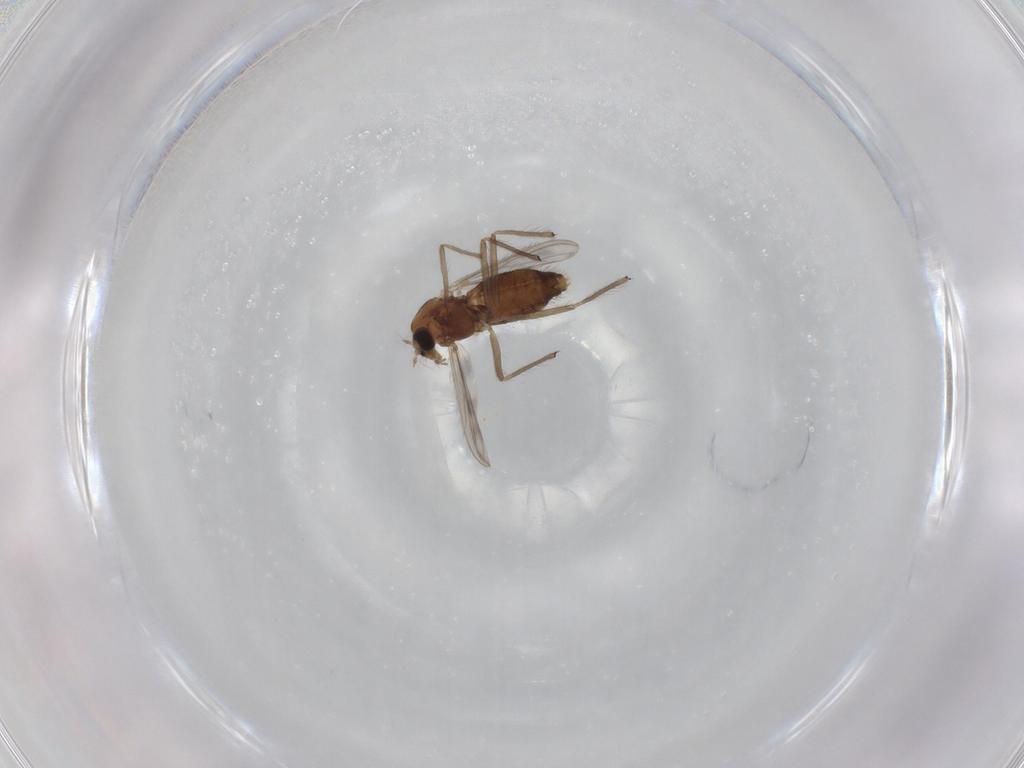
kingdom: Animalia
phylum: Arthropoda
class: Insecta
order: Diptera
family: Chironomidae
